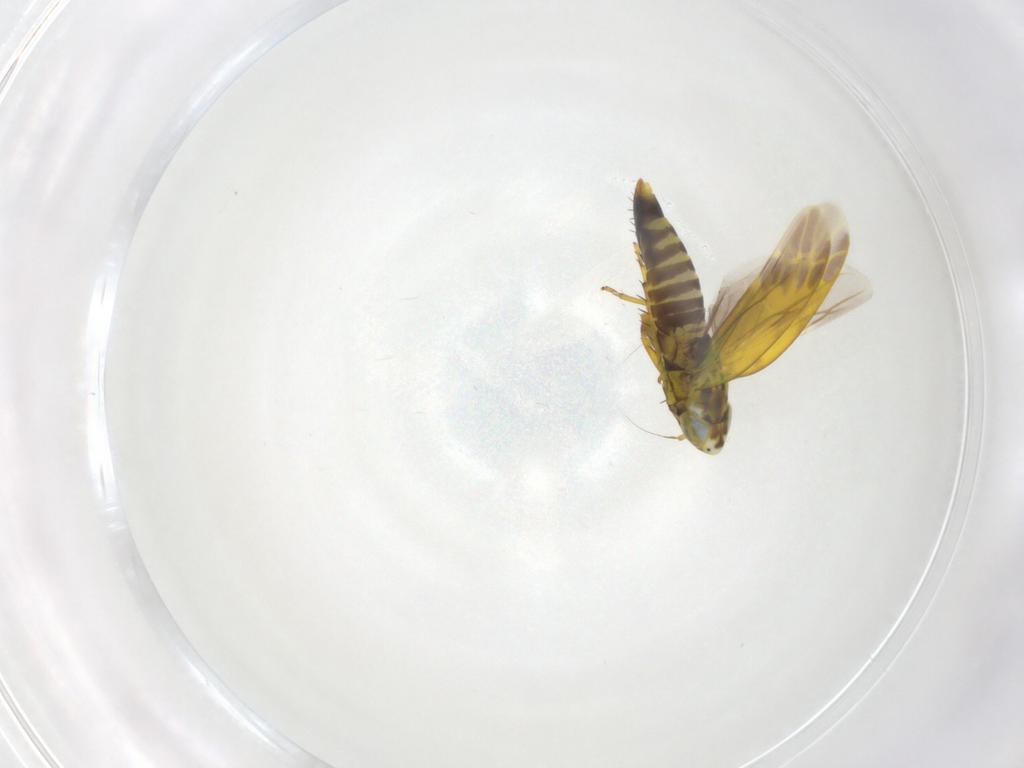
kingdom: Animalia
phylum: Arthropoda
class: Insecta
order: Hemiptera
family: Cicadellidae
